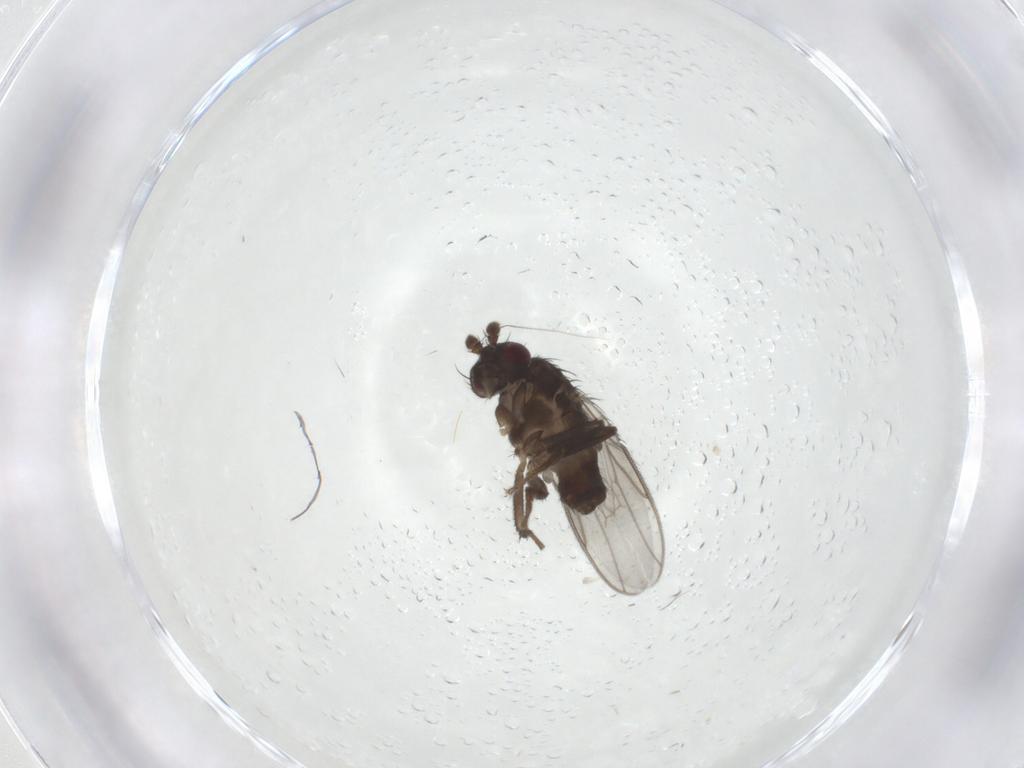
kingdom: Animalia
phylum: Arthropoda
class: Insecta
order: Diptera
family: Sphaeroceridae
